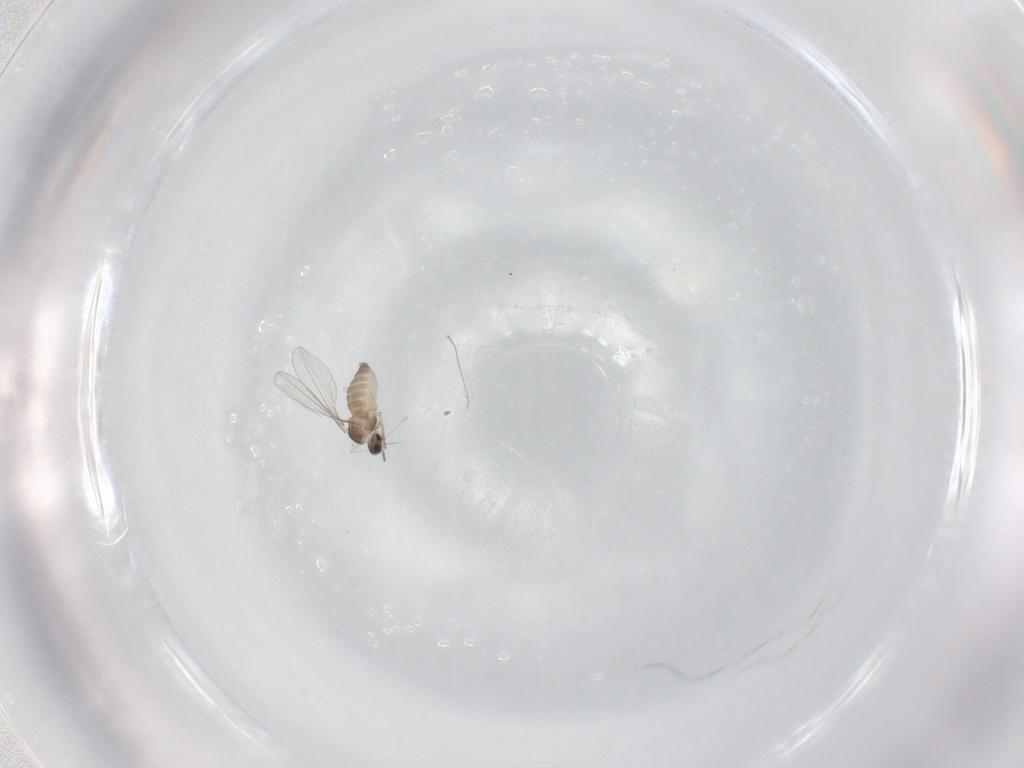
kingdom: Animalia
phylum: Arthropoda
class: Insecta
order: Diptera
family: Cecidomyiidae
